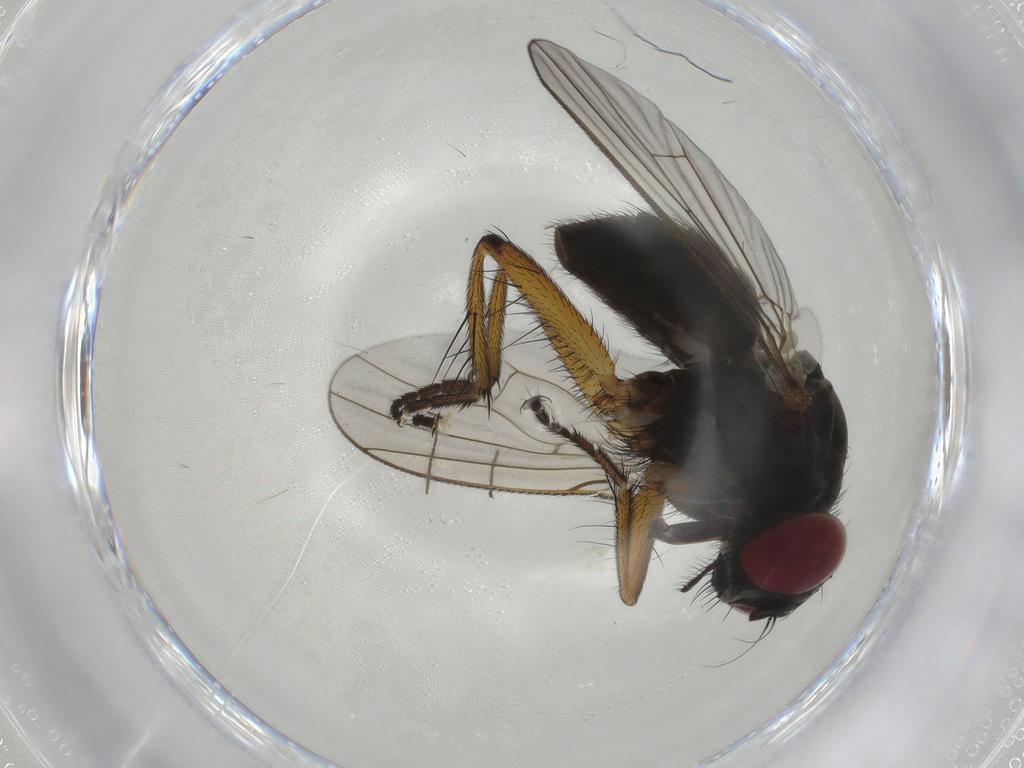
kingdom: Animalia
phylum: Arthropoda
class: Insecta
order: Diptera
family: Muscidae
